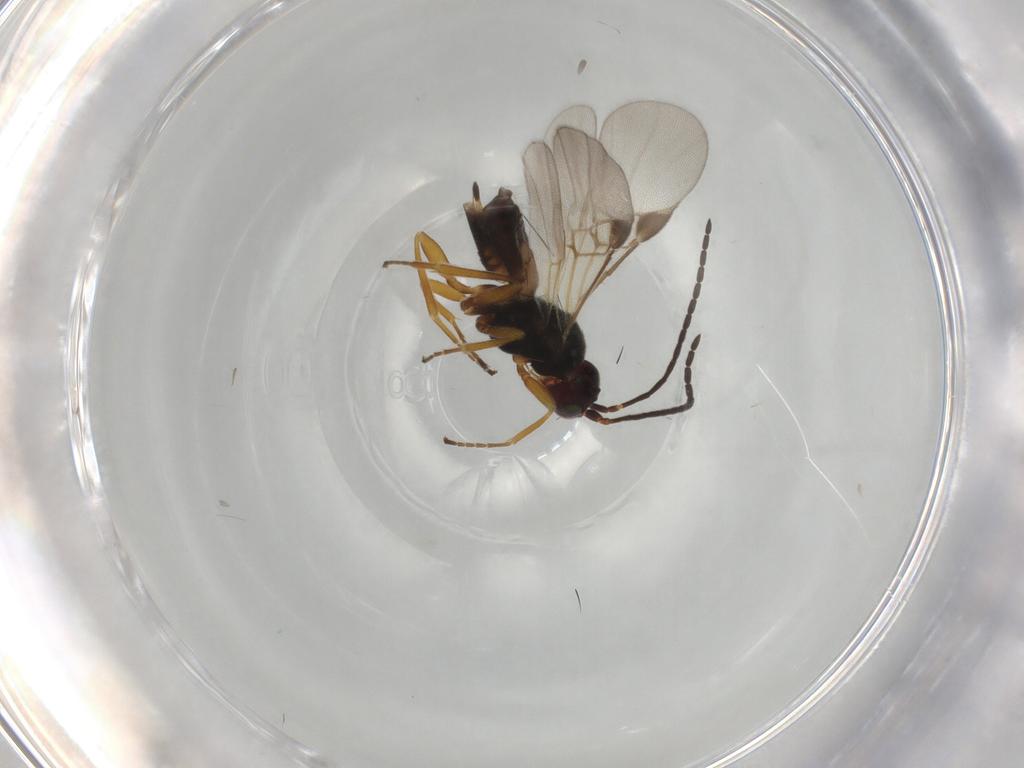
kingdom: Animalia
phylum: Arthropoda
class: Insecta
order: Hymenoptera
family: Braconidae
